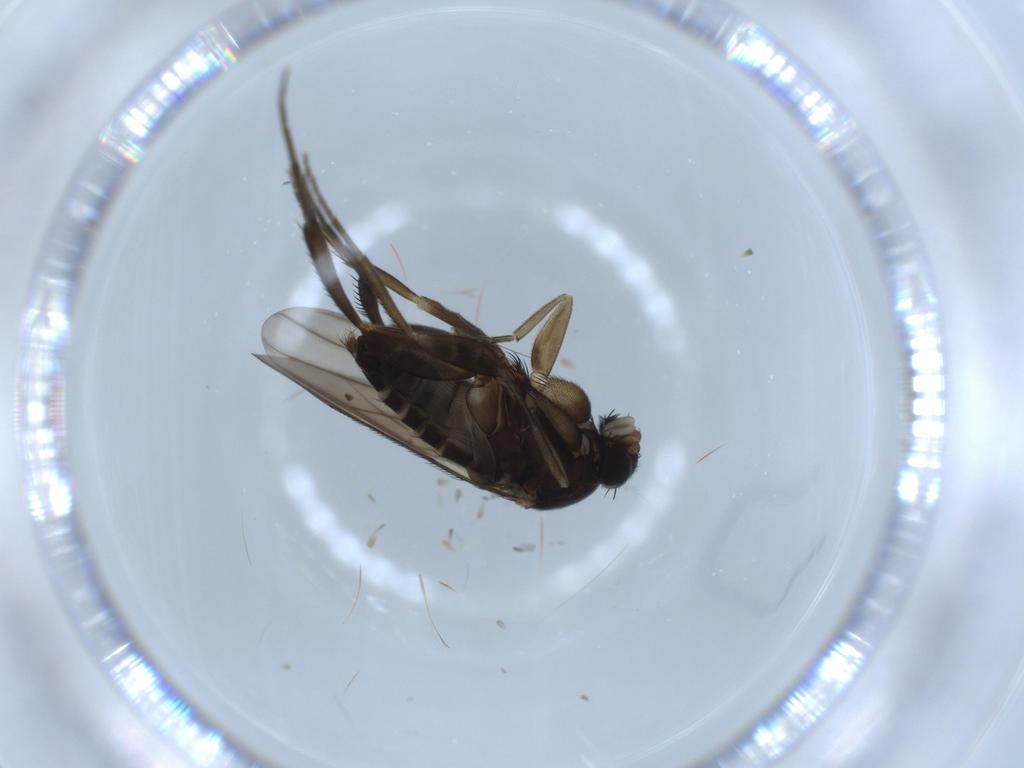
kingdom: Animalia
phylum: Arthropoda
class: Insecta
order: Diptera
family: Phoridae
